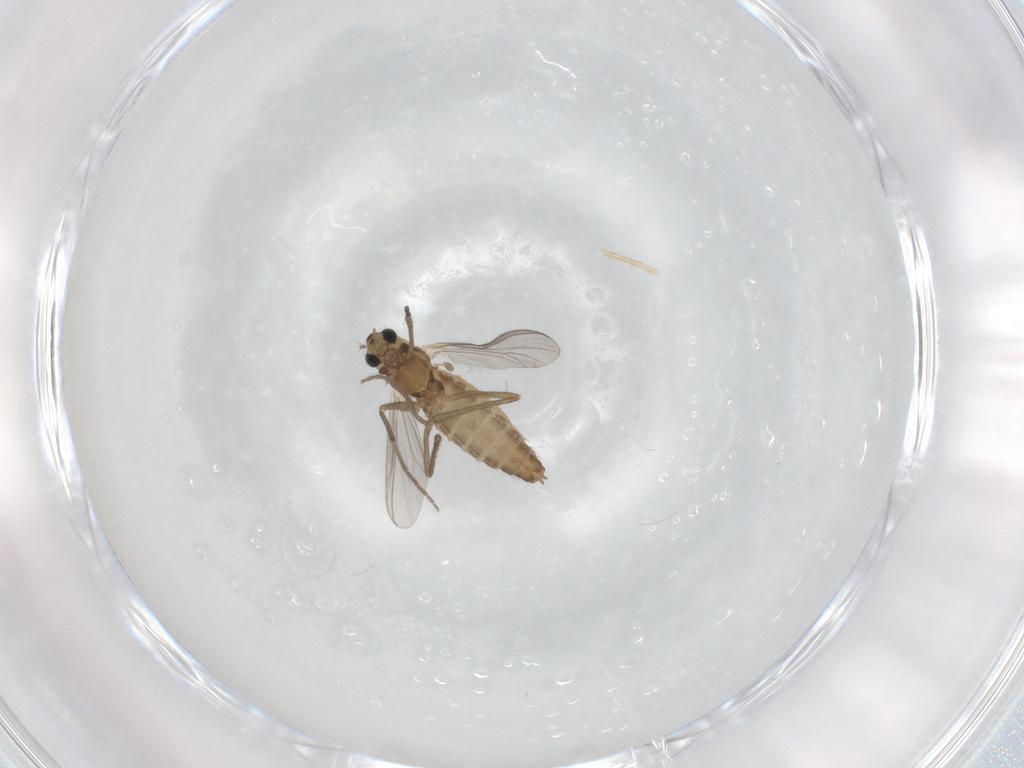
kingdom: Animalia
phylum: Arthropoda
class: Insecta
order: Diptera
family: Chironomidae
